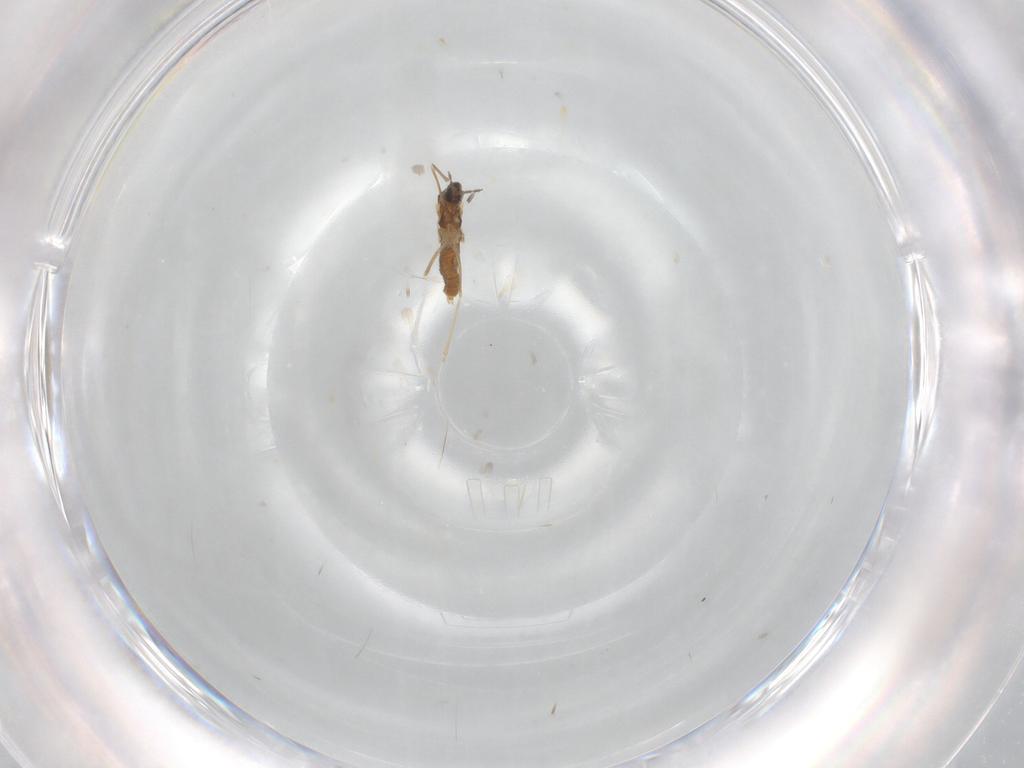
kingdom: Animalia
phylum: Arthropoda
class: Insecta
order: Diptera
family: Cecidomyiidae
